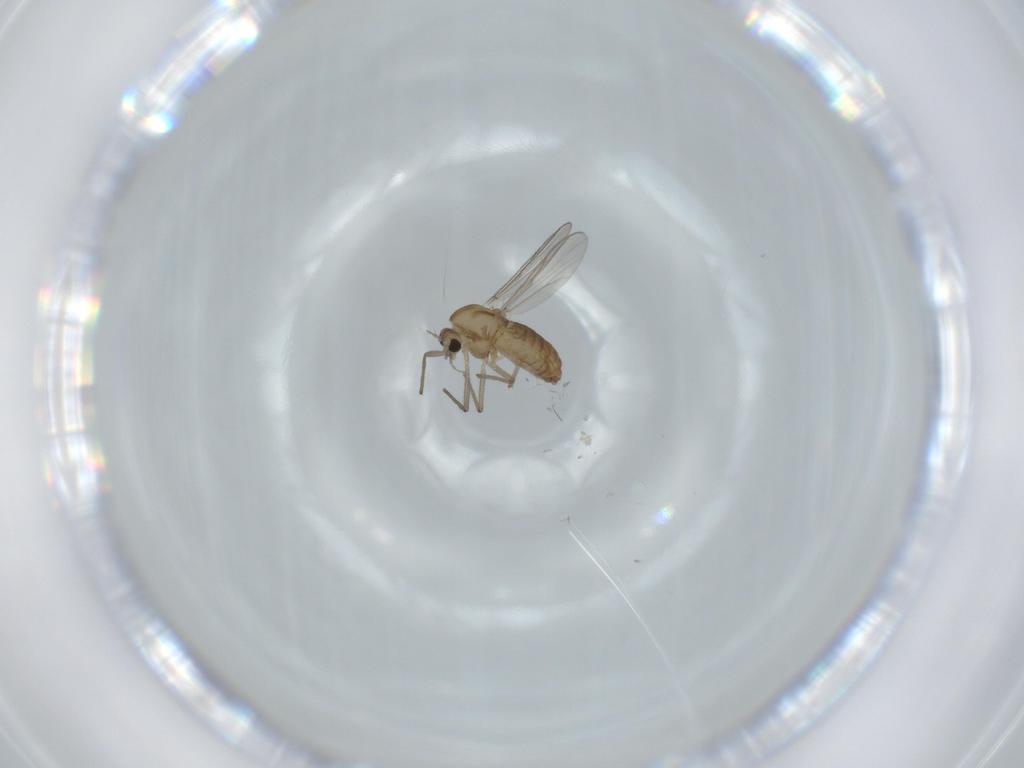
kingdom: Animalia
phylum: Arthropoda
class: Insecta
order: Diptera
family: Chironomidae
